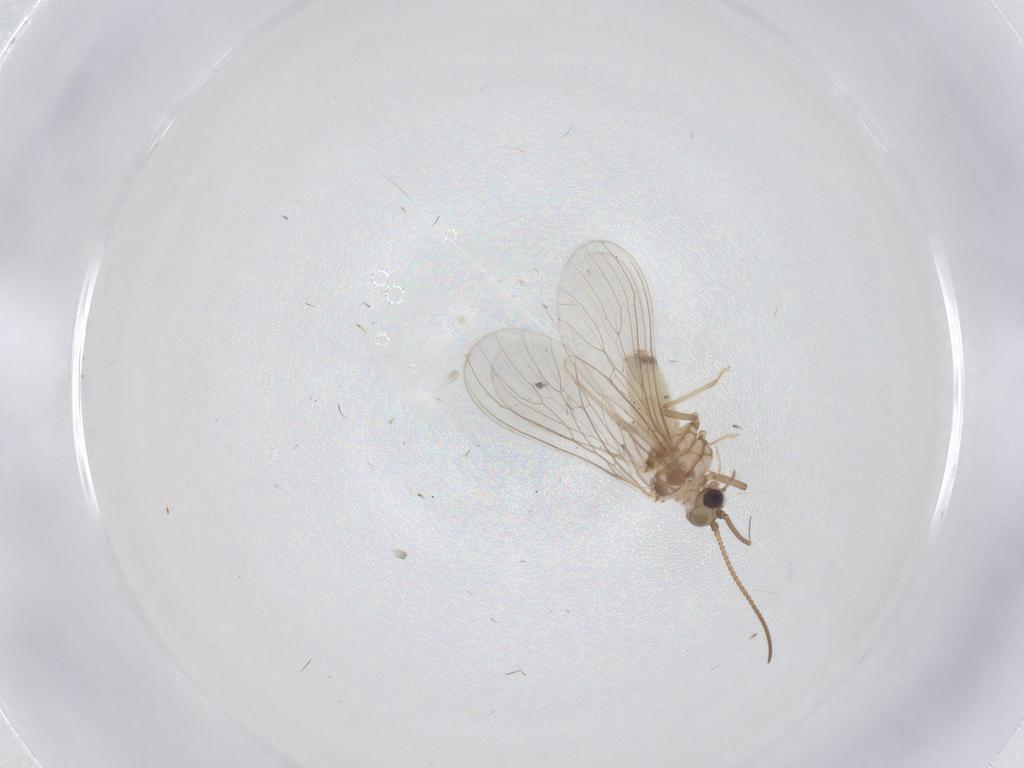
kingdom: Animalia
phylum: Arthropoda
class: Insecta
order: Neuroptera
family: Coniopterygidae
